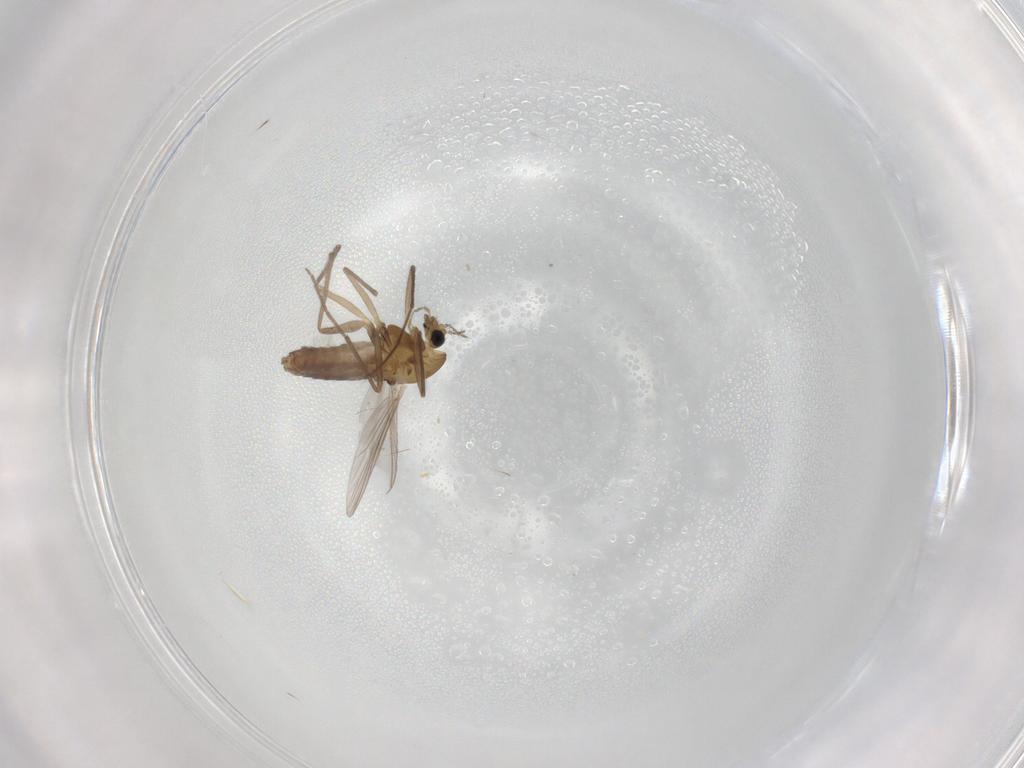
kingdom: Animalia
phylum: Arthropoda
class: Insecta
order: Diptera
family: Chironomidae
